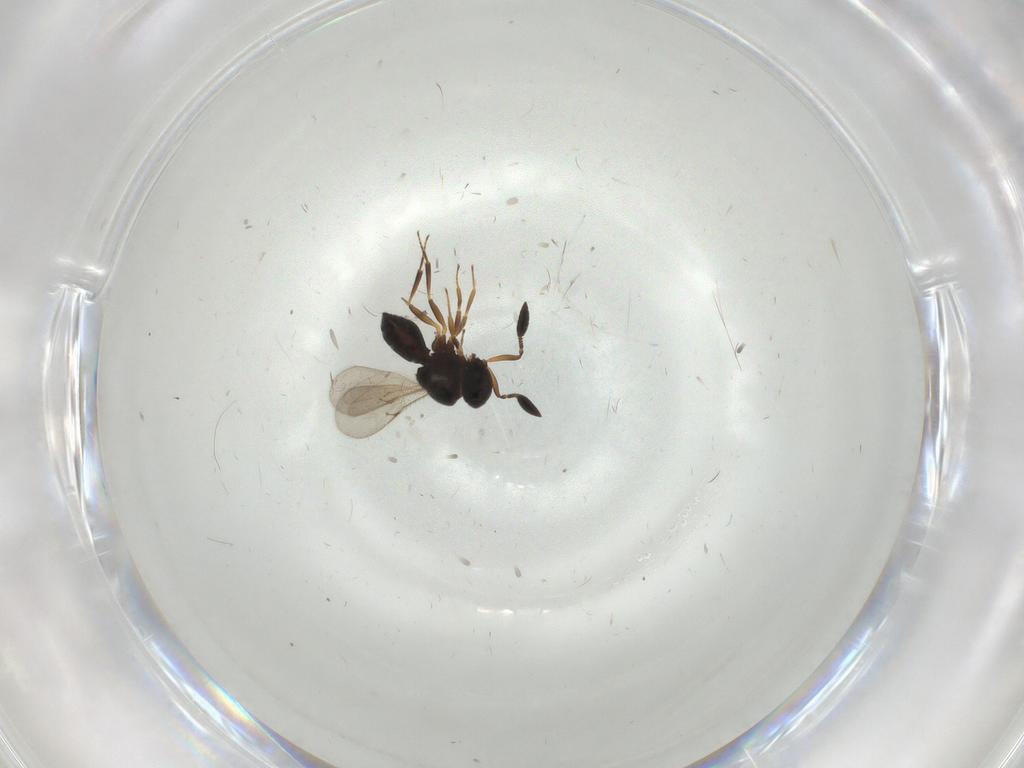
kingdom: Animalia
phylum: Arthropoda
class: Insecta
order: Hymenoptera
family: Scelionidae
